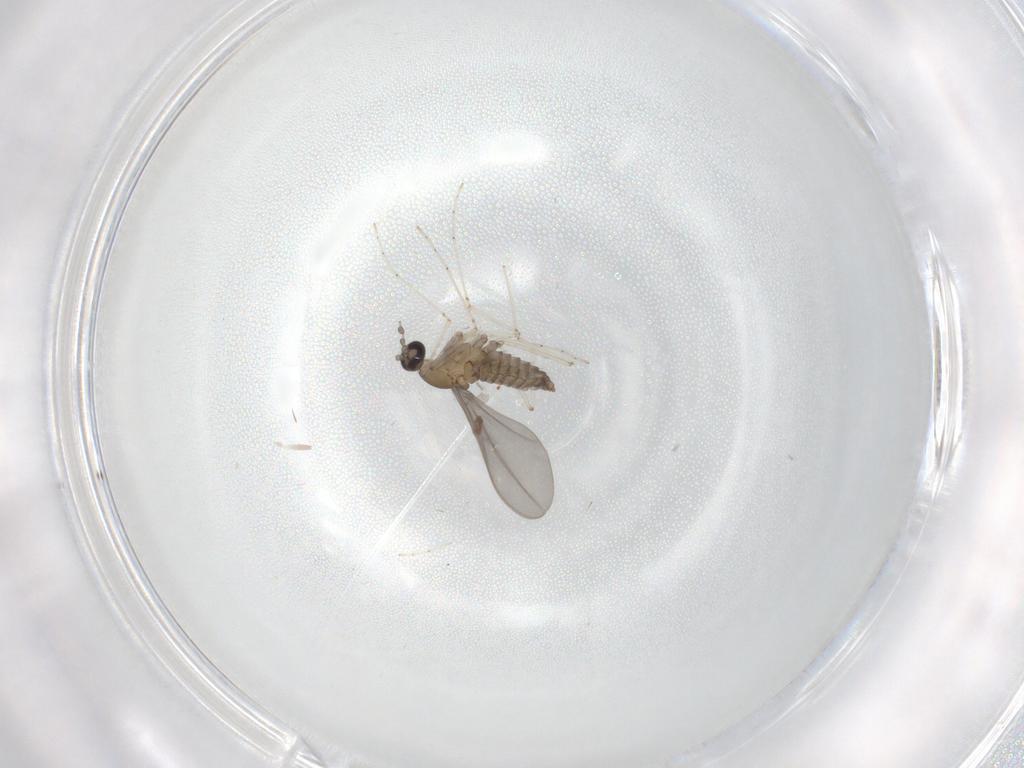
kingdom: Animalia
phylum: Arthropoda
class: Insecta
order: Diptera
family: Cecidomyiidae
